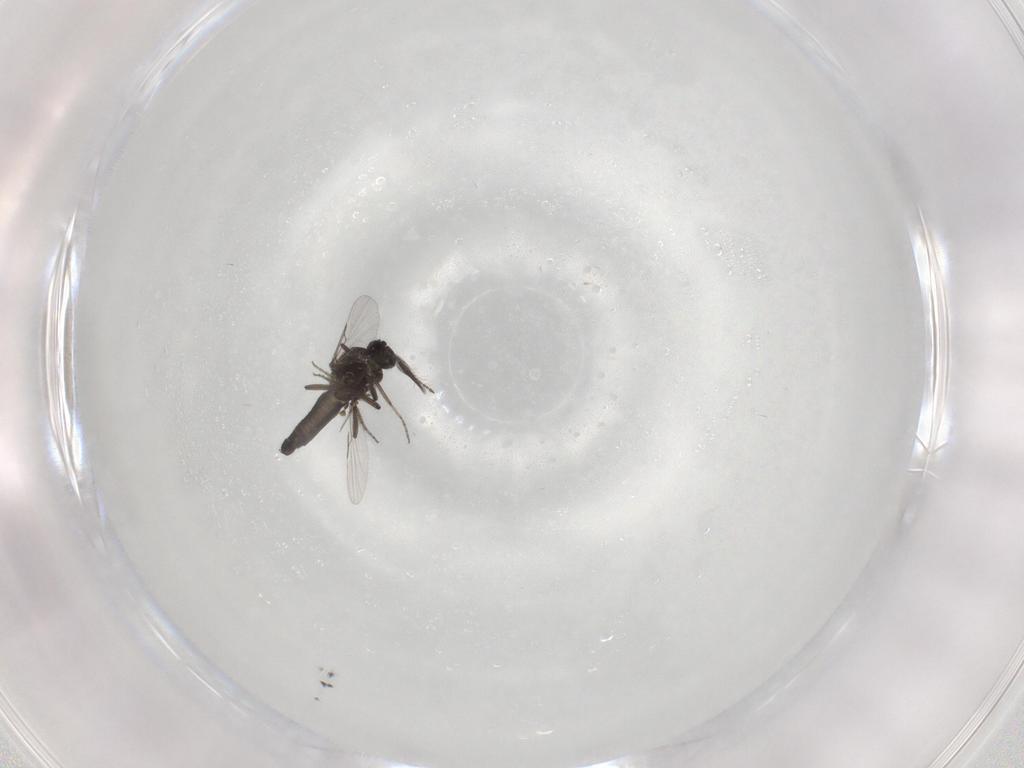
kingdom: Animalia
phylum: Arthropoda
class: Insecta
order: Diptera
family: Ceratopogonidae
